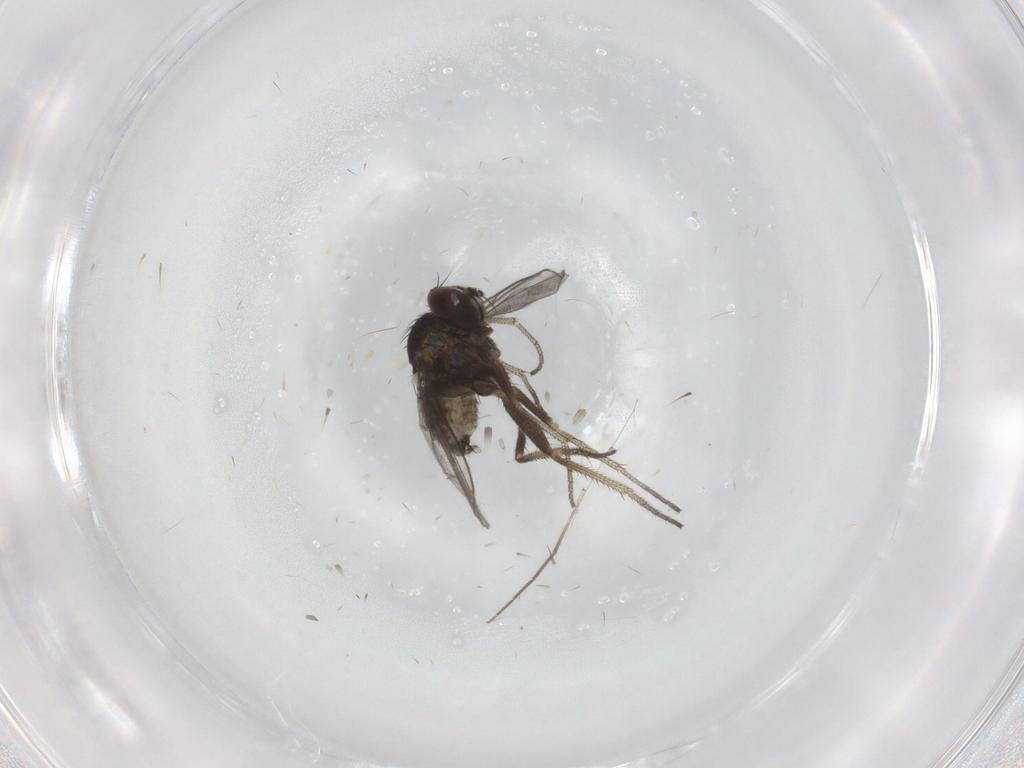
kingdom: Animalia
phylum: Arthropoda
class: Insecta
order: Diptera
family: Chironomidae
